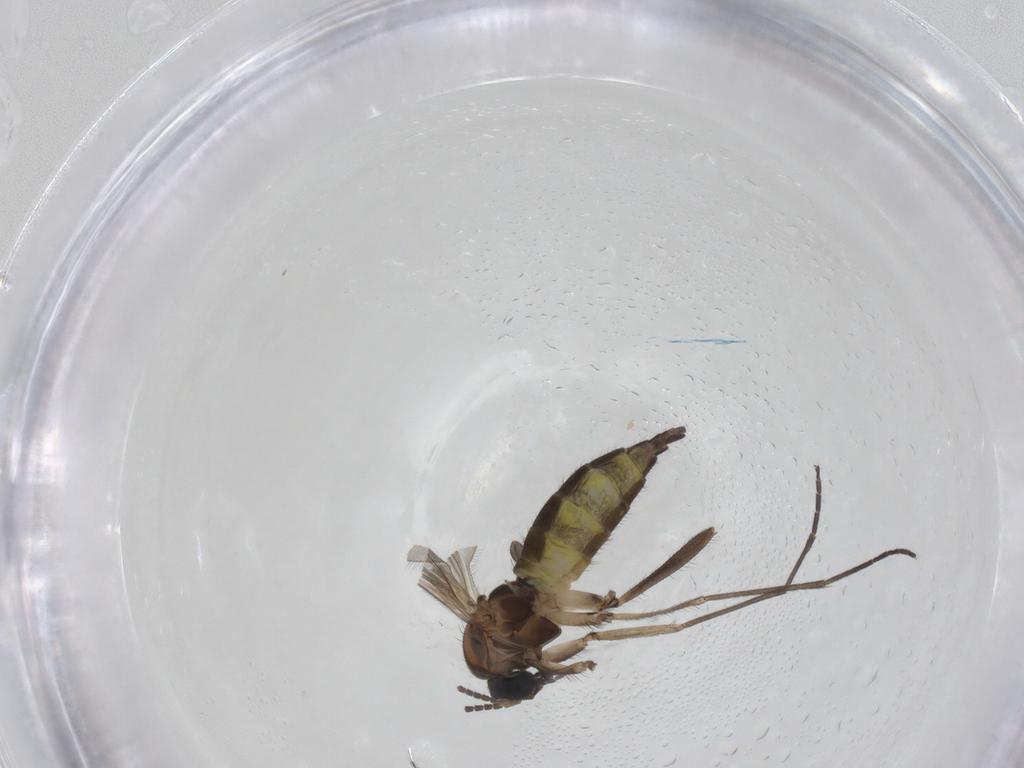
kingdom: Animalia
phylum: Arthropoda
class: Insecta
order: Diptera
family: Sciaridae
